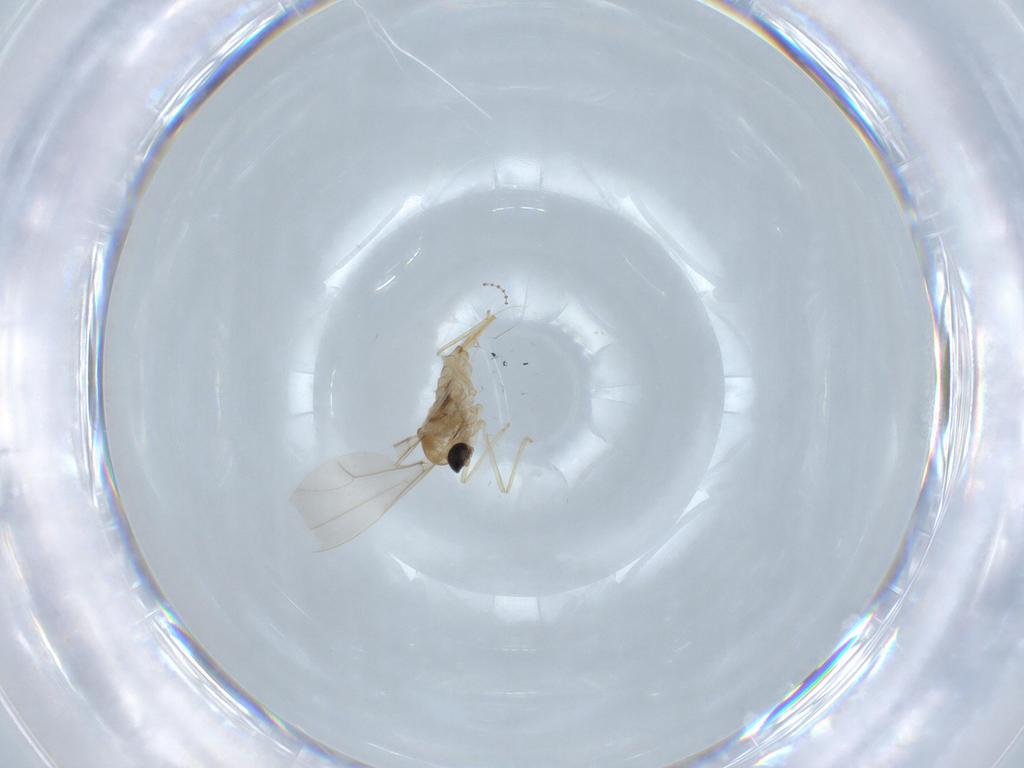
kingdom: Animalia
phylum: Arthropoda
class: Insecta
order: Diptera
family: Cecidomyiidae
